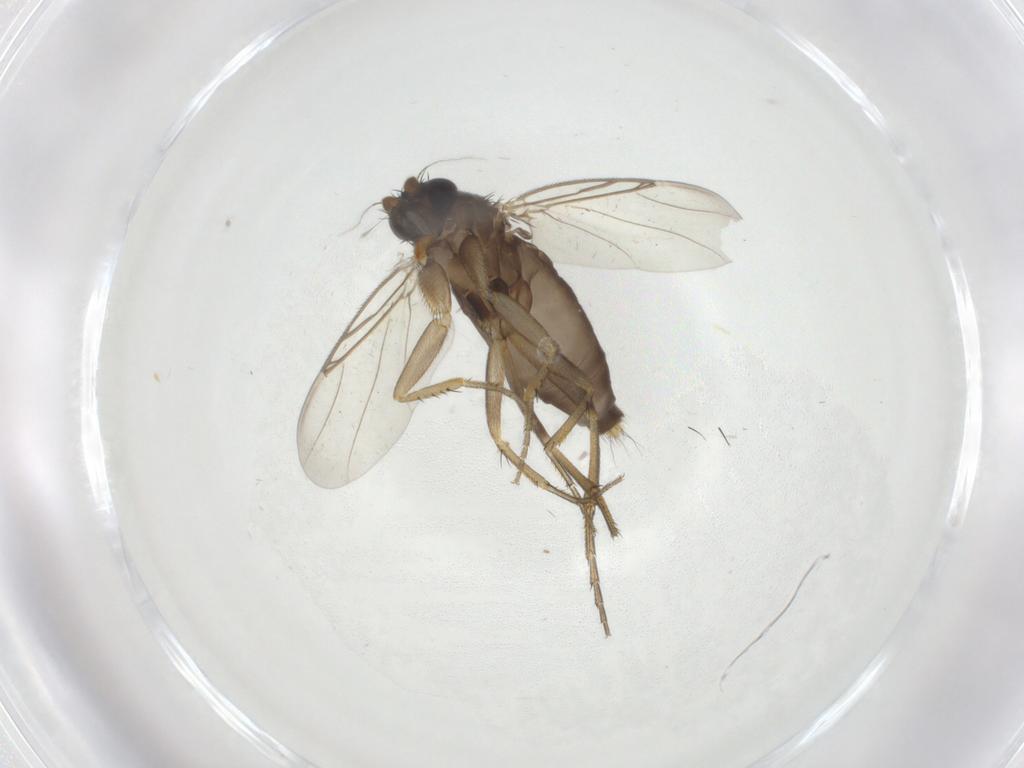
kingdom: Animalia
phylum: Arthropoda
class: Insecta
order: Diptera
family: Phoridae
